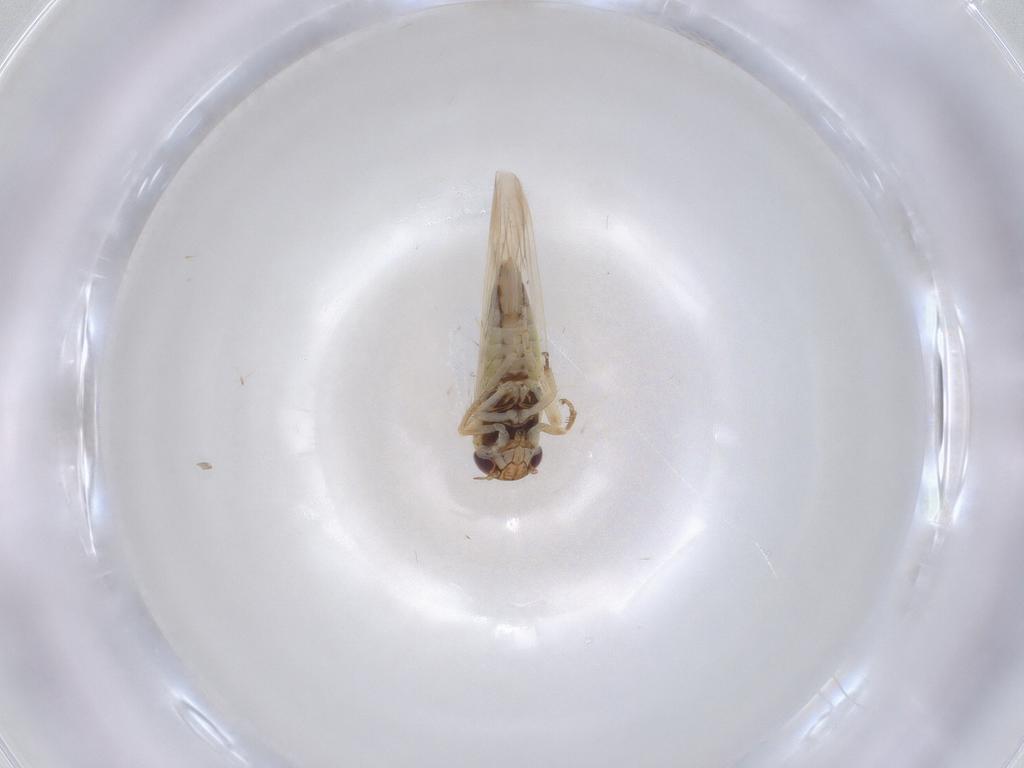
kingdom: Animalia
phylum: Arthropoda
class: Insecta
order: Hemiptera
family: Cicadellidae
